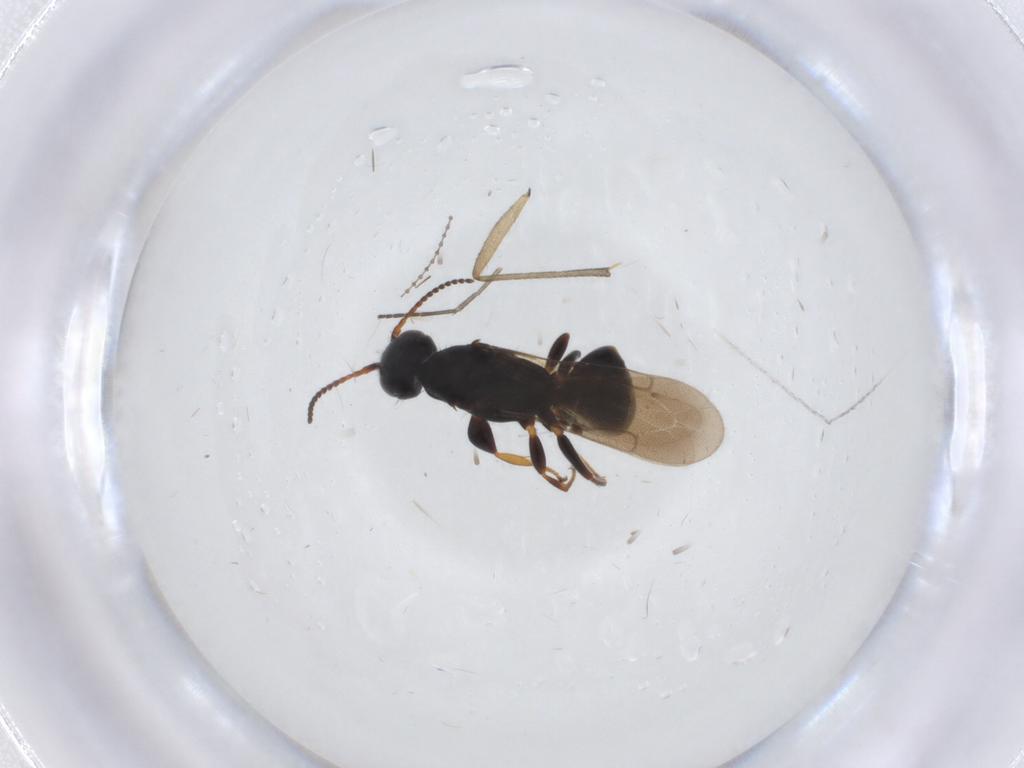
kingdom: Animalia
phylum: Arthropoda
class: Insecta
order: Hymenoptera
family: Bethylidae
